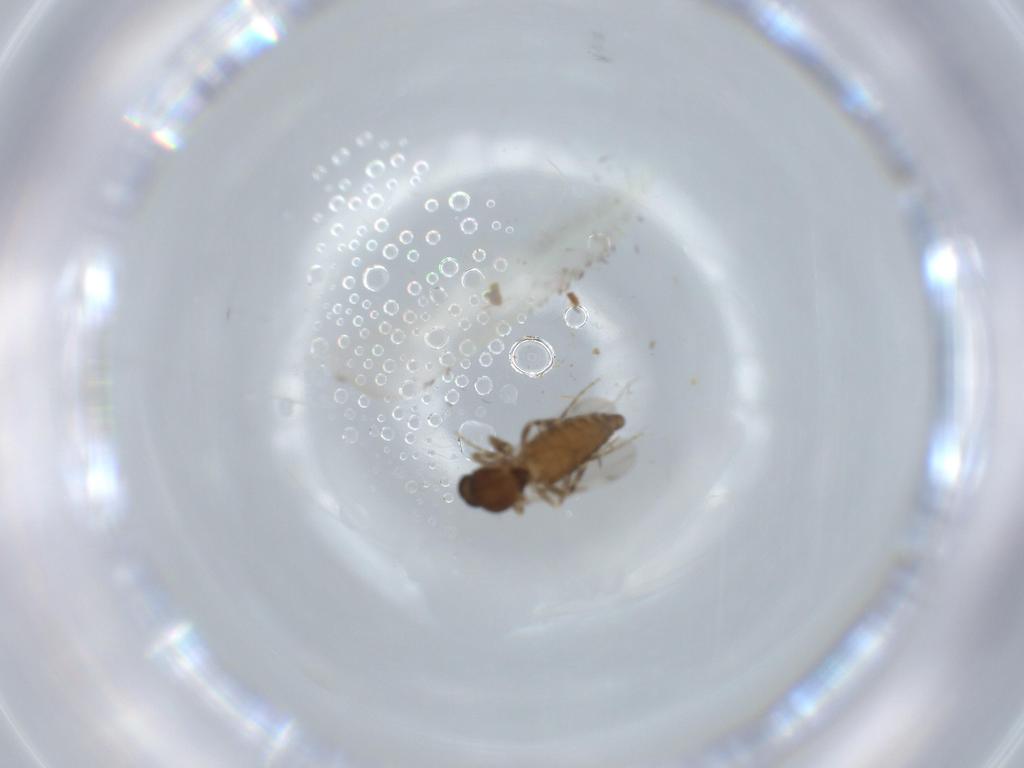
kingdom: Animalia
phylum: Arthropoda
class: Insecta
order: Diptera
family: Ceratopogonidae
